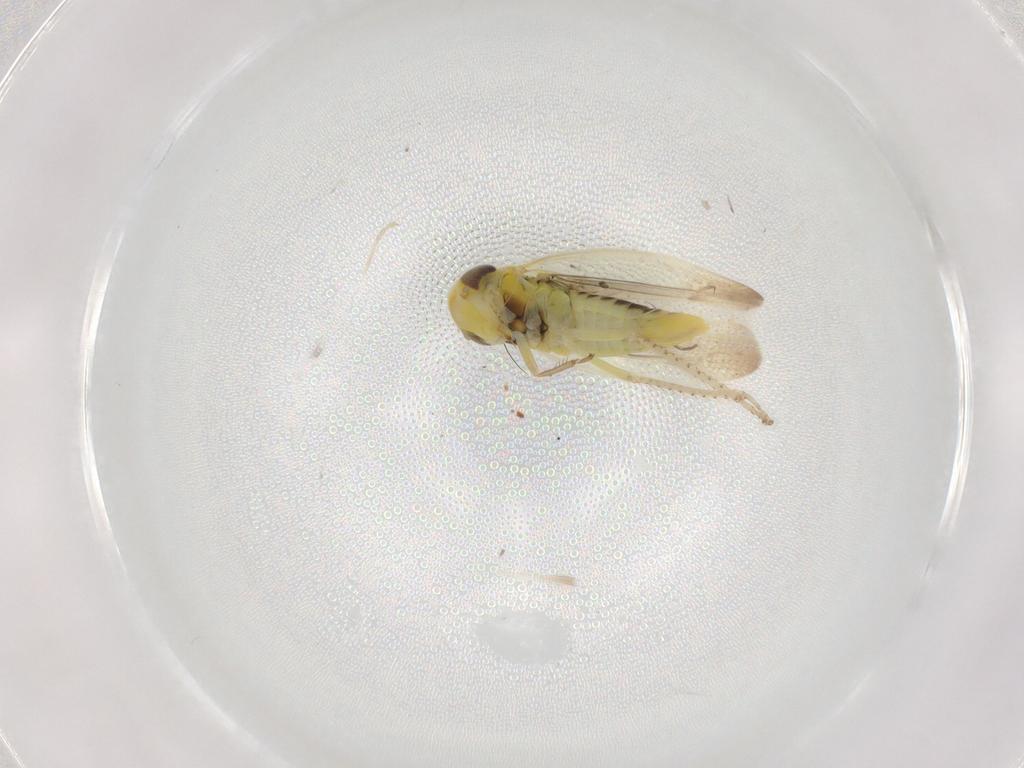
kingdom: Animalia
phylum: Arthropoda
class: Insecta
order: Hemiptera
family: Cicadellidae
